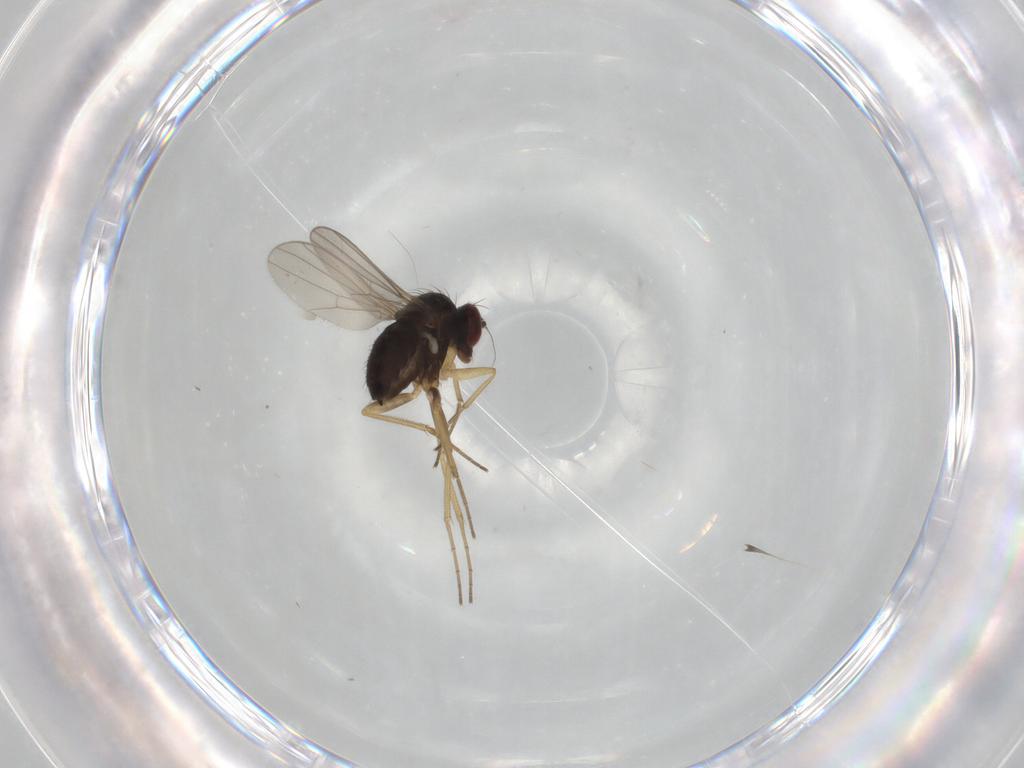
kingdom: Animalia
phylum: Arthropoda
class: Insecta
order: Diptera
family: Dolichopodidae
